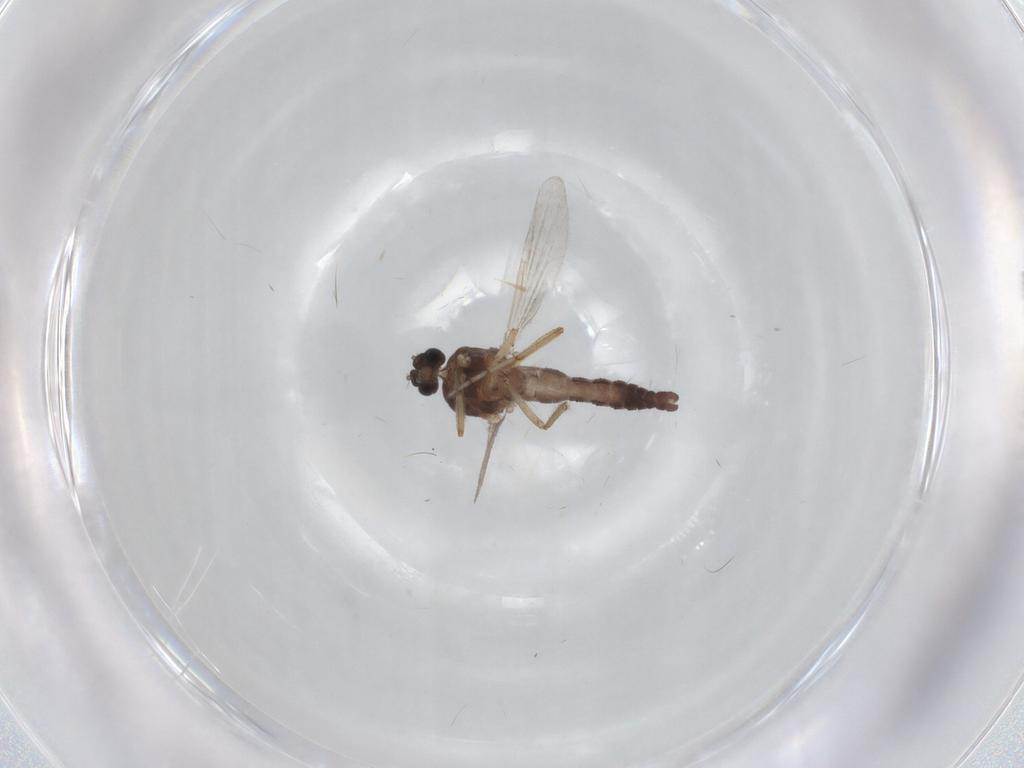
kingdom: Animalia
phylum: Arthropoda
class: Insecta
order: Diptera
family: Ceratopogonidae
